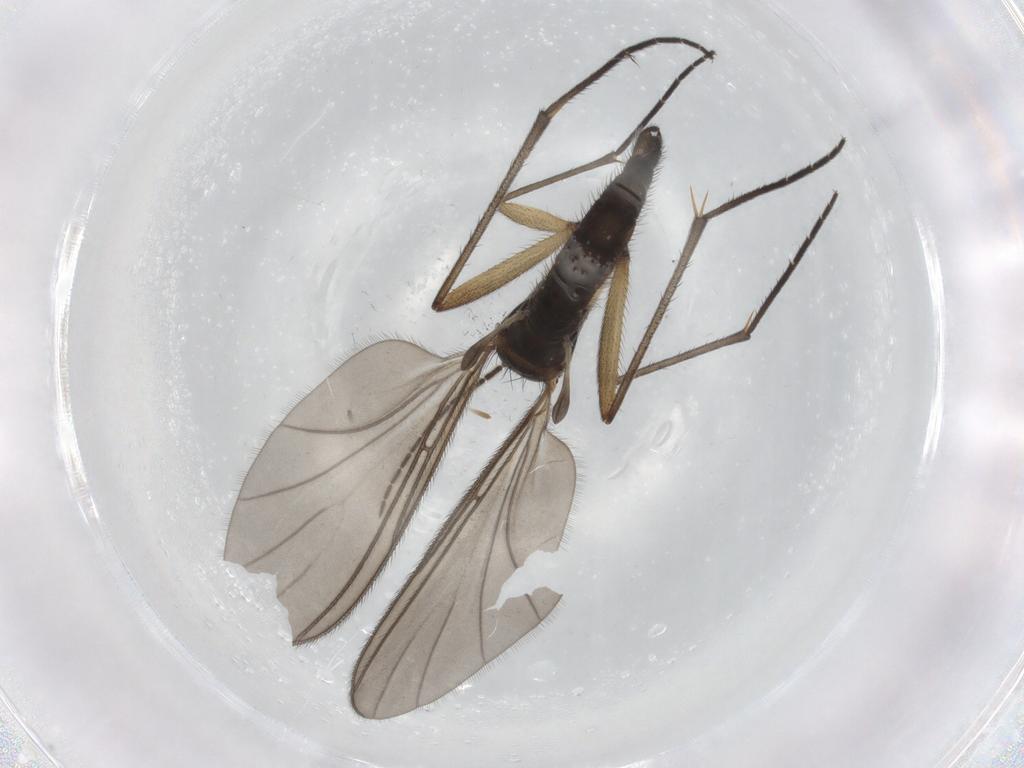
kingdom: Animalia
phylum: Arthropoda
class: Insecta
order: Diptera
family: Sciaridae
